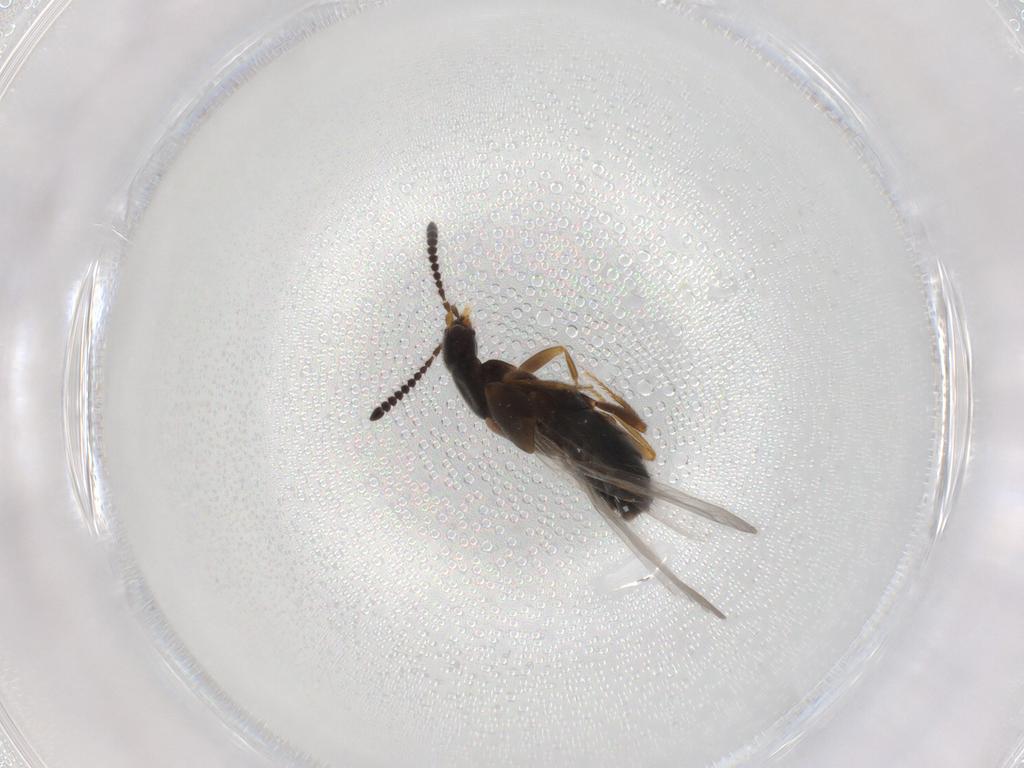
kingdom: Animalia
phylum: Arthropoda
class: Insecta
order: Coleoptera
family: Staphylinidae
